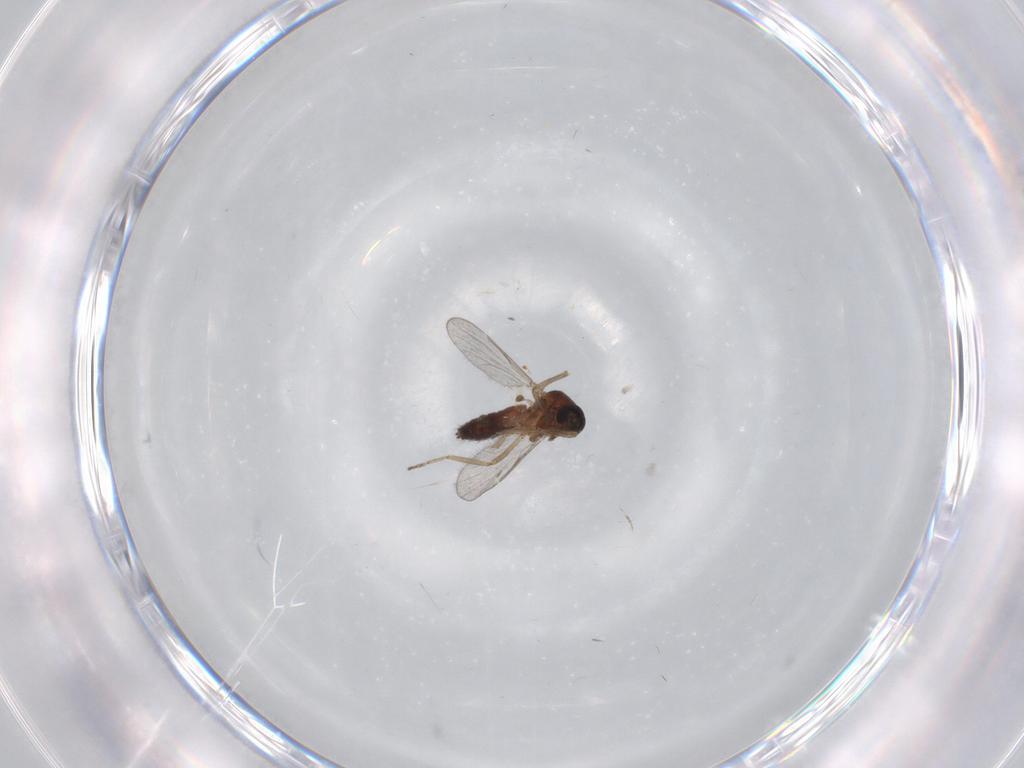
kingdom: Animalia
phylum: Arthropoda
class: Insecta
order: Diptera
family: Ceratopogonidae
